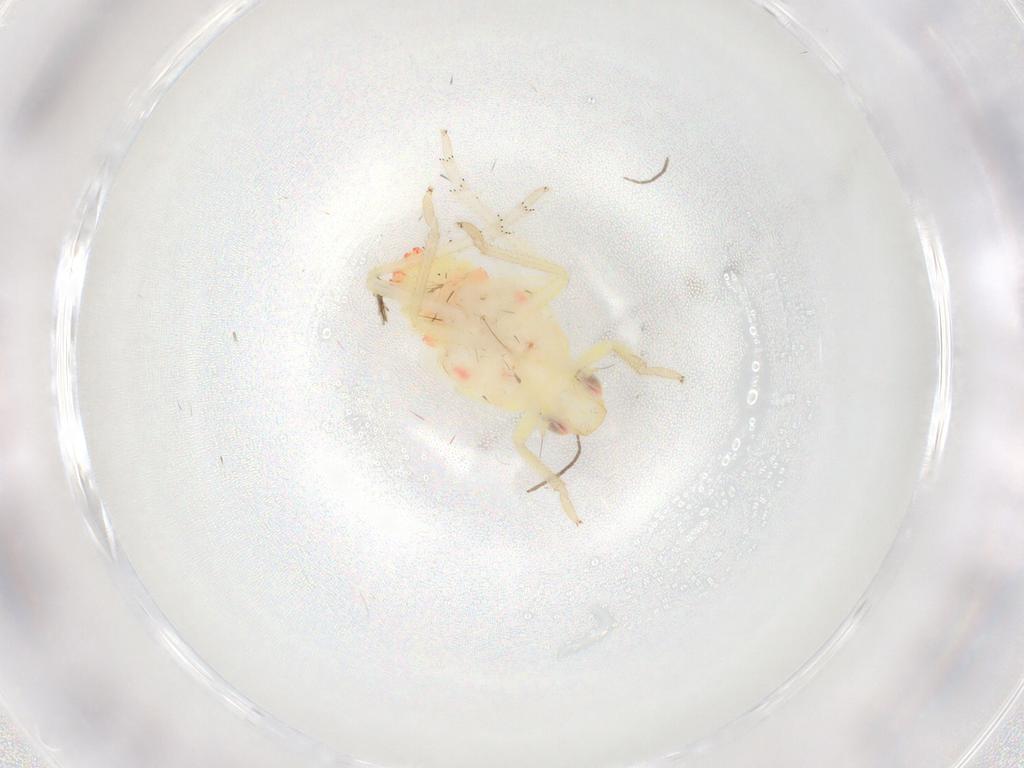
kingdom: Animalia
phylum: Arthropoda
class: Insecta
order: Hemiptera
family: Tropiduchidae
